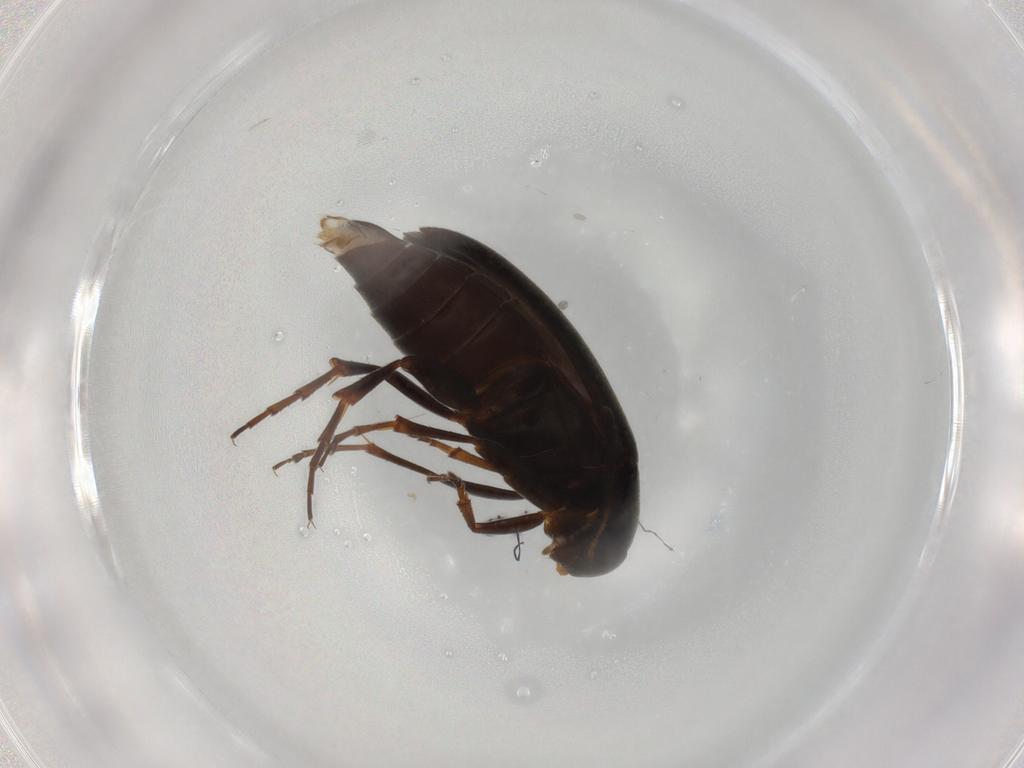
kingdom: Animalia
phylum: Arthropoda
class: Insecta
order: Coleoptera
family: Scraptiidae
